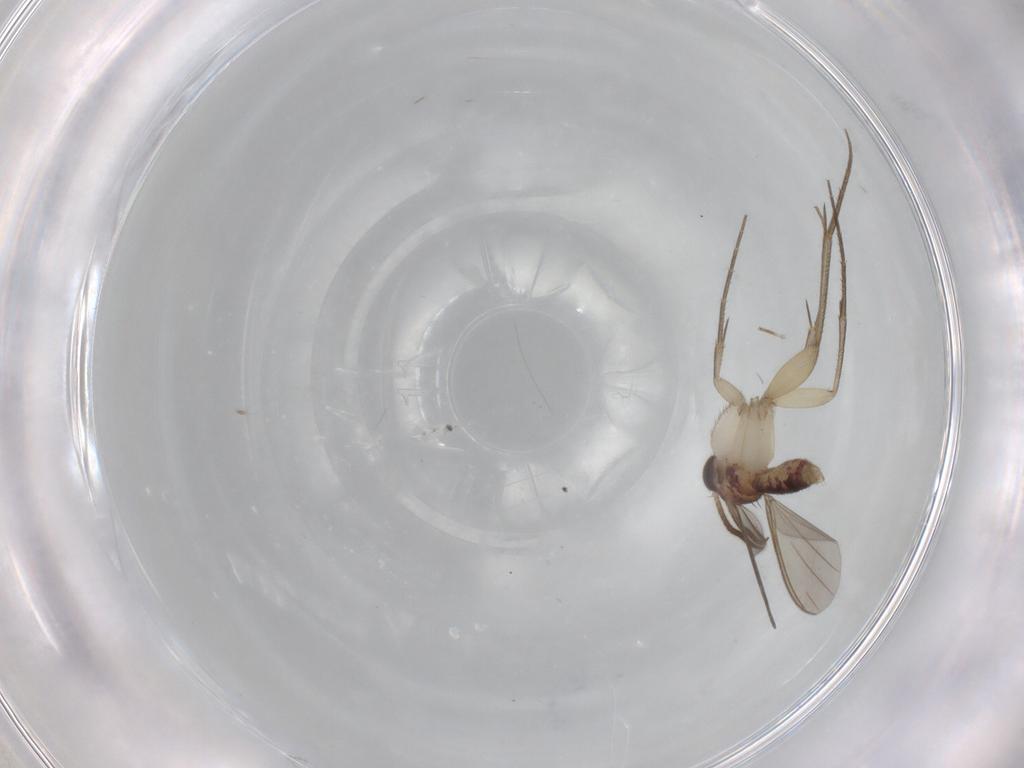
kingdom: Animalia
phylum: Arthropoda
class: Insecta
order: Diptera
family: Mycetophilidae
